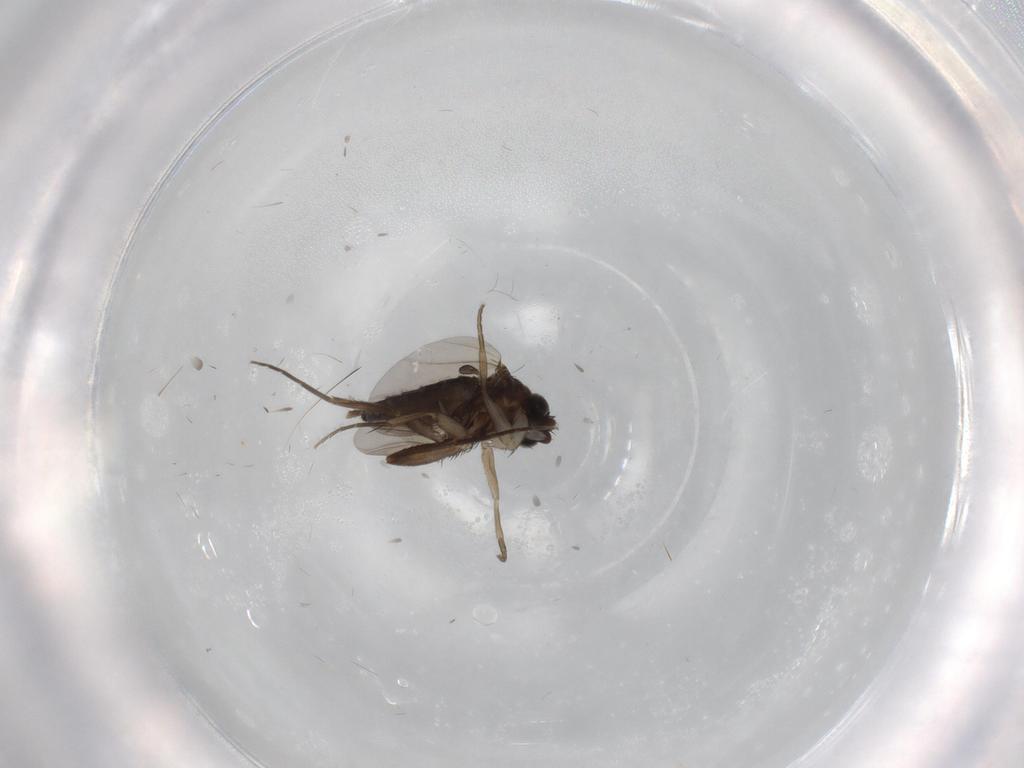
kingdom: Animalia
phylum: Arthropoda
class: Insecta
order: Diptera
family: Phoridae
